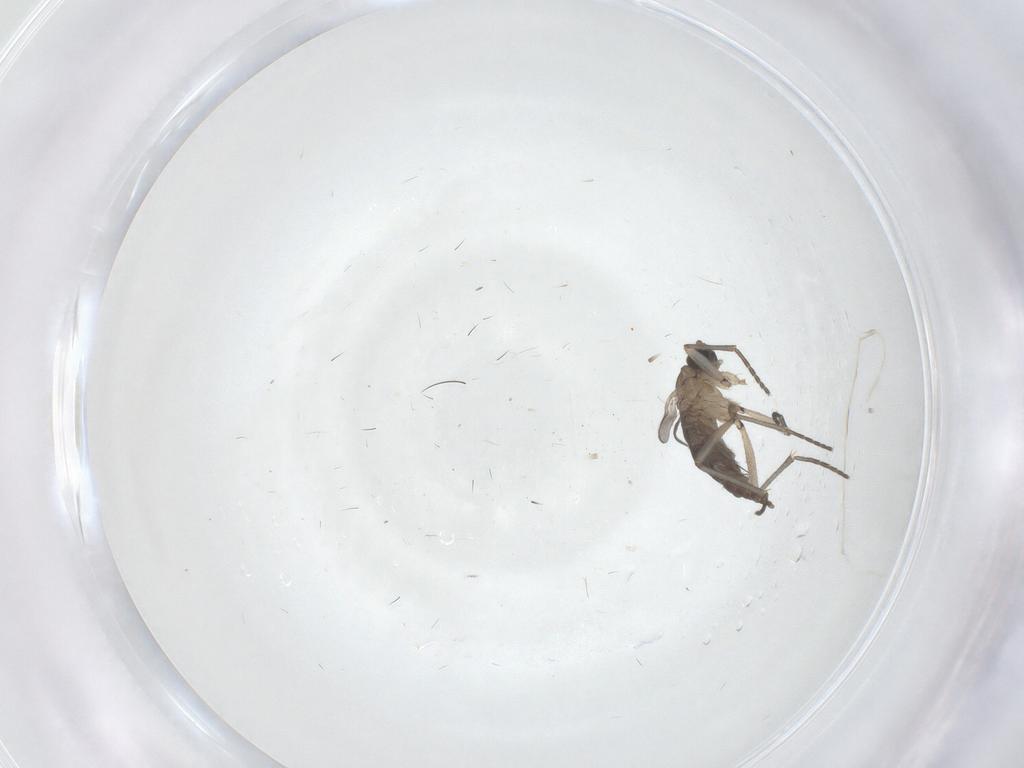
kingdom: Animalia
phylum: Arthropoda
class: Insecta
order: Diptera
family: Sciaridae
